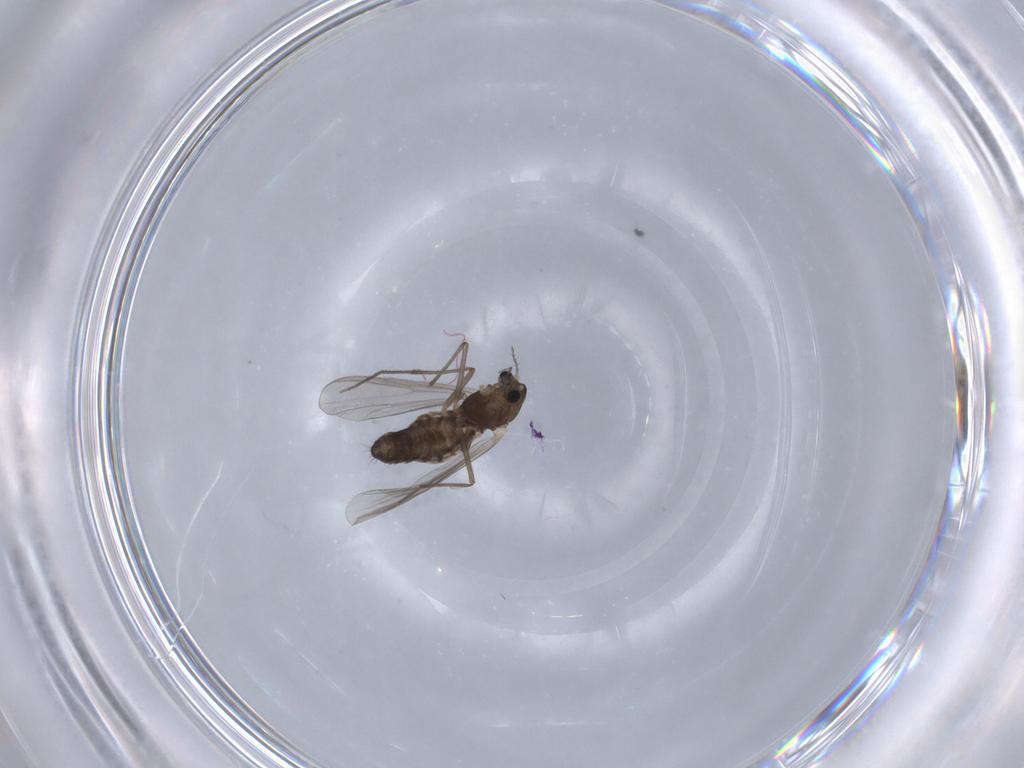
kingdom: Animalia
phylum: Arthropoda
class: Insecta
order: Diptera
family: Chironomidae
